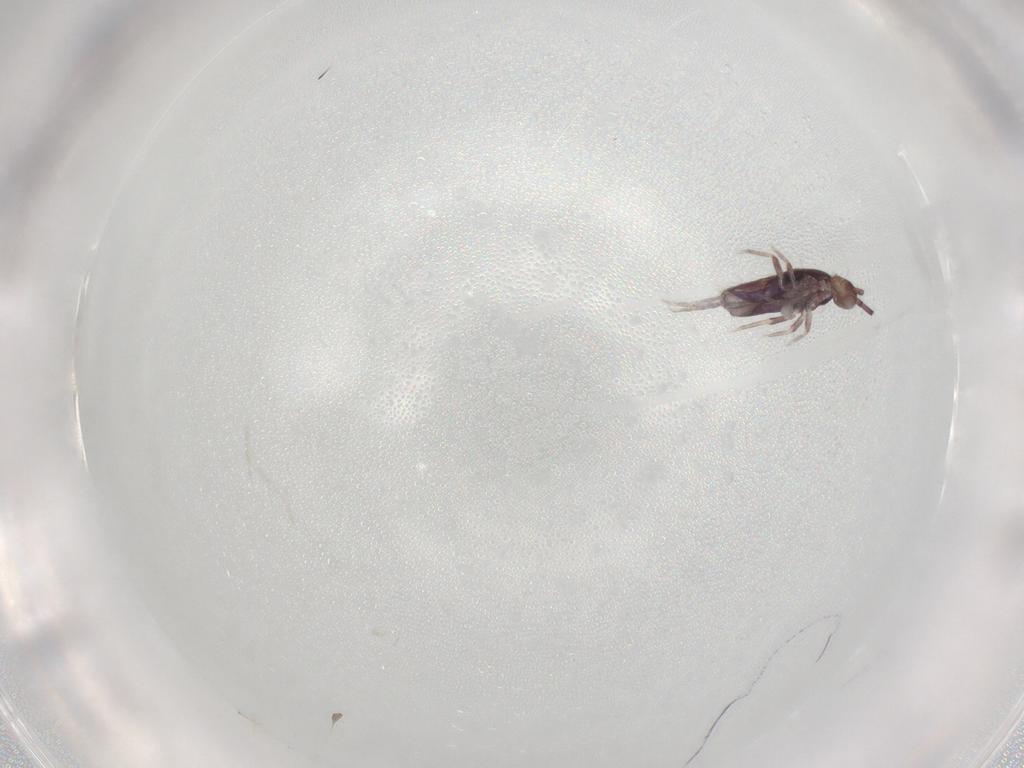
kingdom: Animalia
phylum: Arthropoda
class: Collembola
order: Entomobryomorpha
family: Entomobryidae
